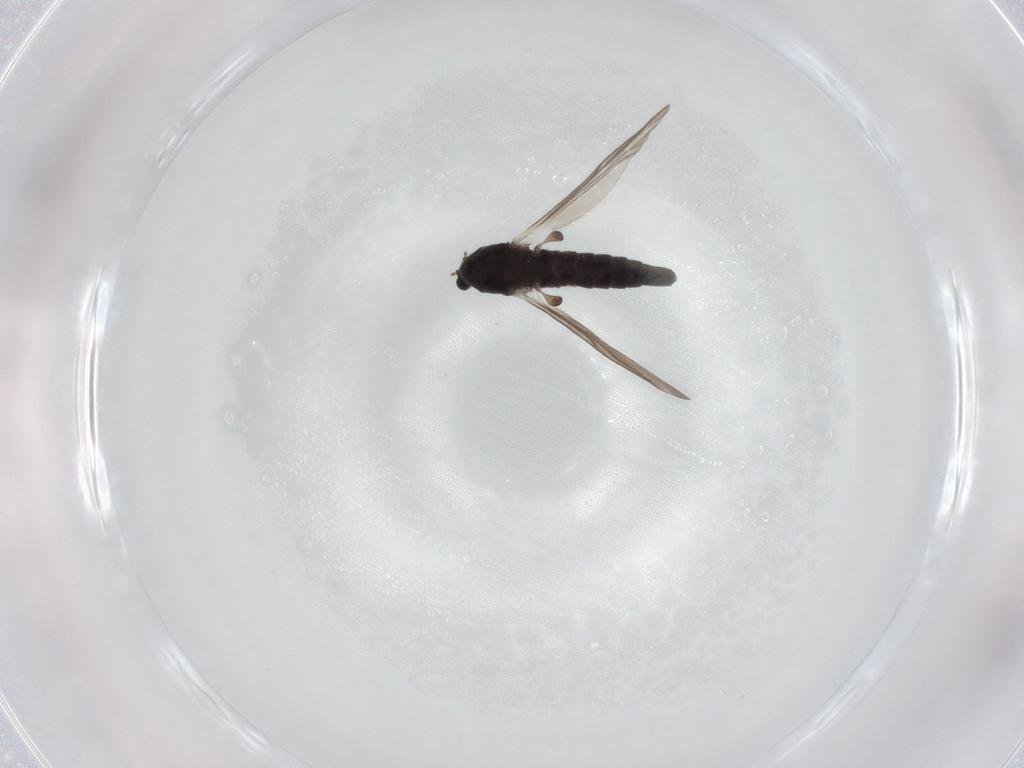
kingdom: Animalia
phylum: Arthropoda
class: Insecta
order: Diptera
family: Chironomidae
